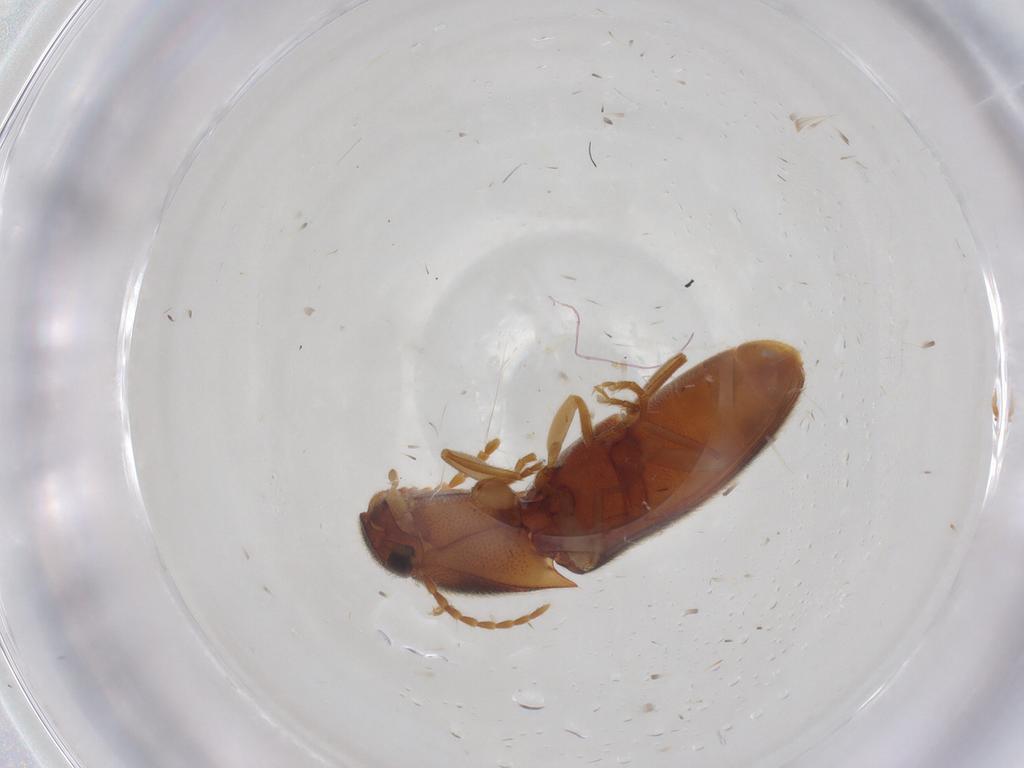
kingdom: Animalia
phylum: Arthropoda
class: Insecta
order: Coleoptera
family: Elateridae
